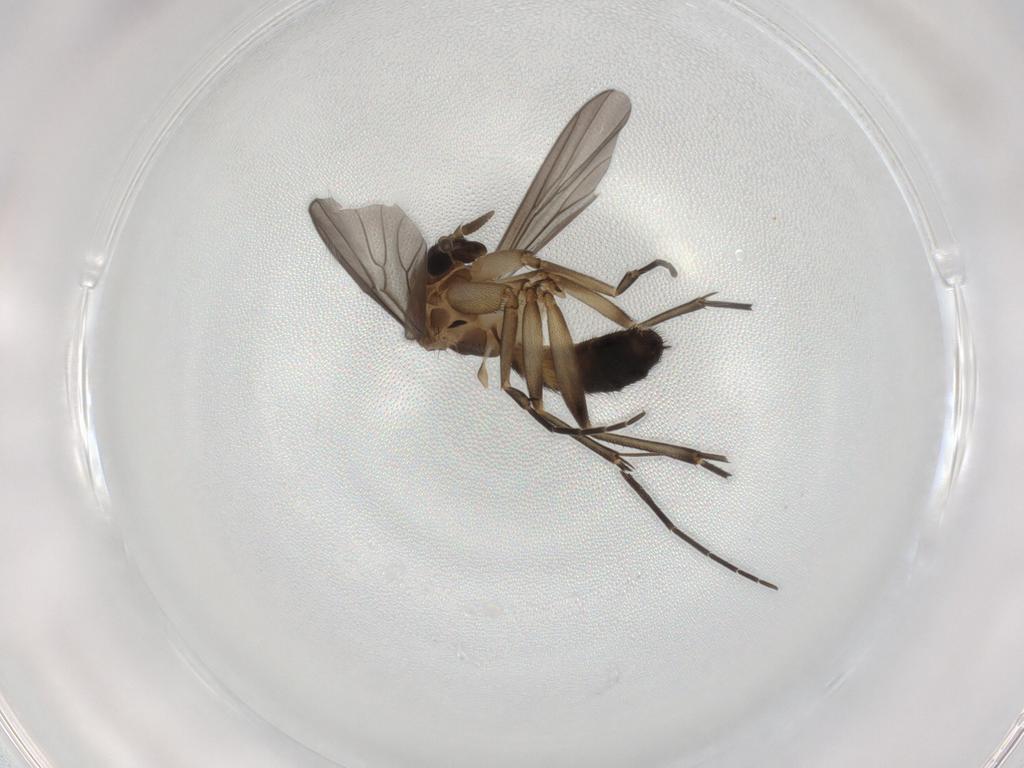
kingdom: Animalia
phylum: Arthropoda
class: Insecta
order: Diptera
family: Mycetophilidae
